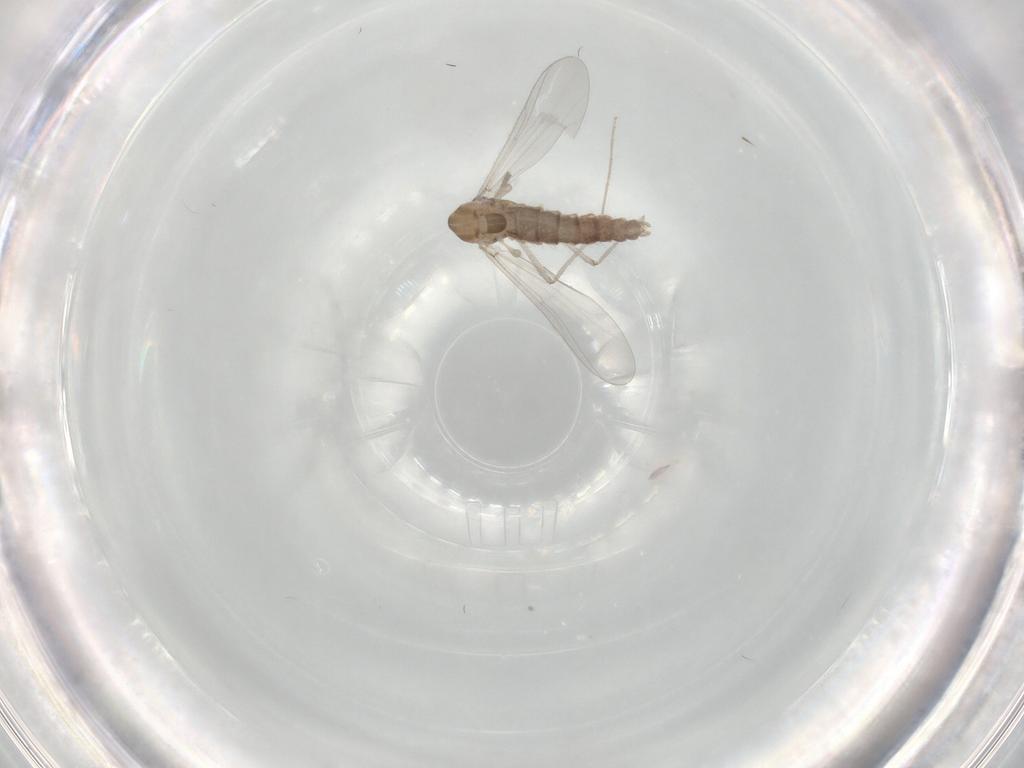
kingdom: Animalia
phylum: Arthropoda
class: Insecta
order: Diptera
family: Chironomidae
